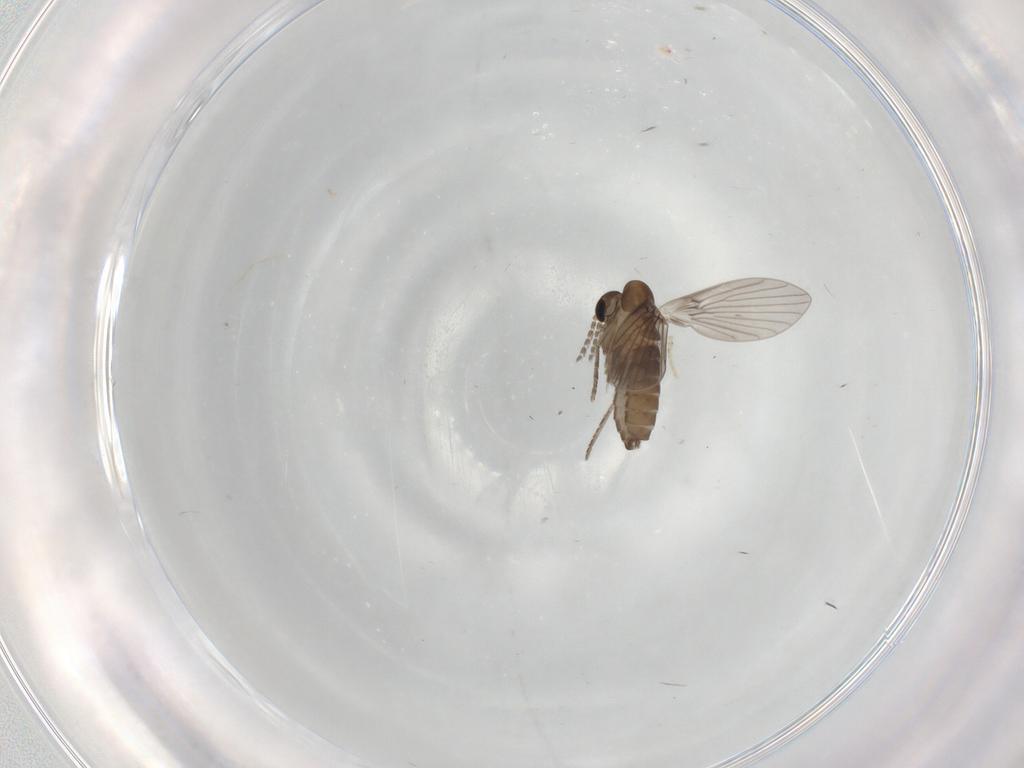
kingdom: Animalia
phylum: Arthropoda
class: Insecta
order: Diptera
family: Psychodidae
